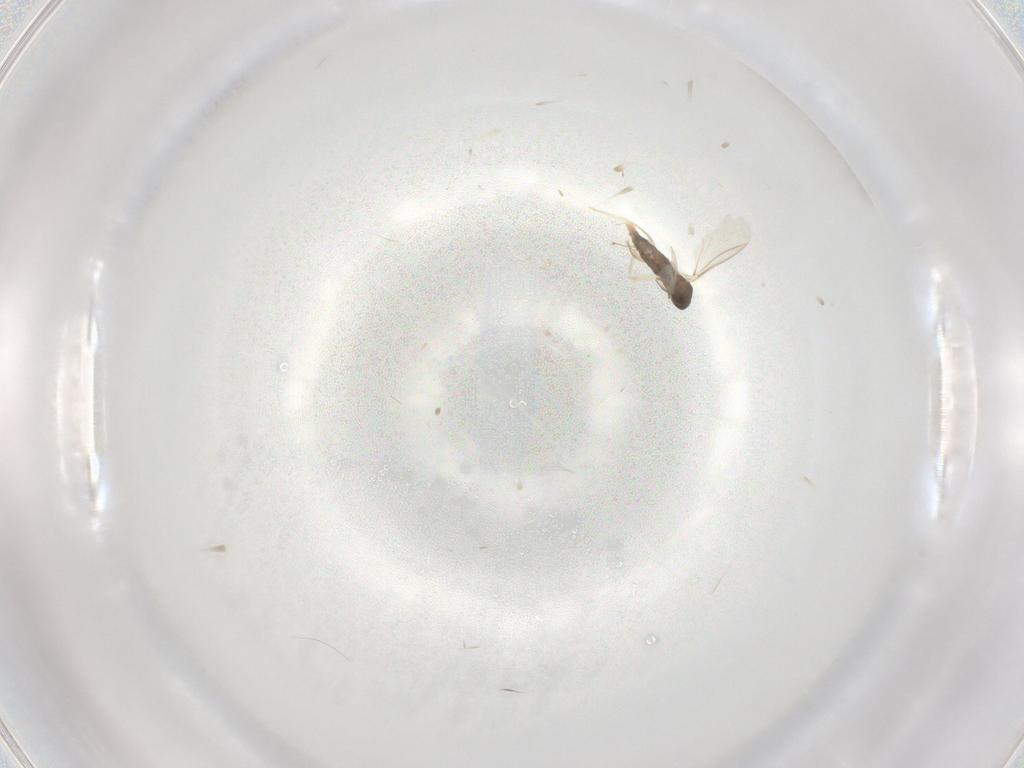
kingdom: Animalia
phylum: Arthropoda
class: Insecta
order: Diptera
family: Cecidomyiidae
